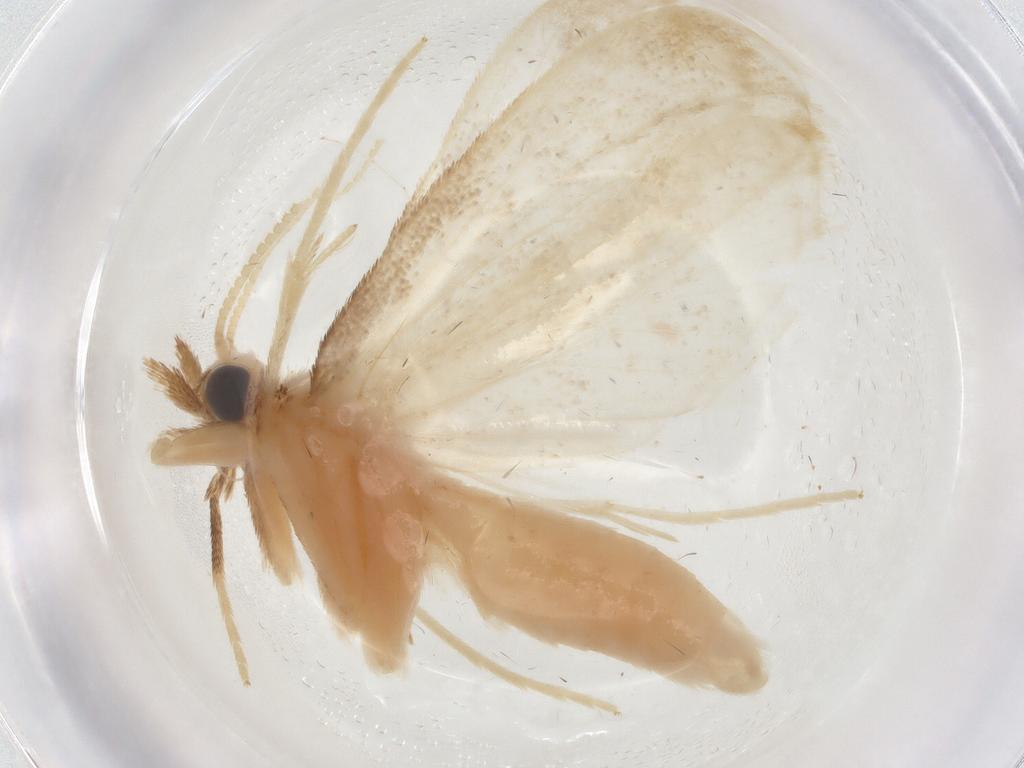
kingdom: Animalia
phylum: Arthropoda
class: Insecta
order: Lepidoptera
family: Crambidae
